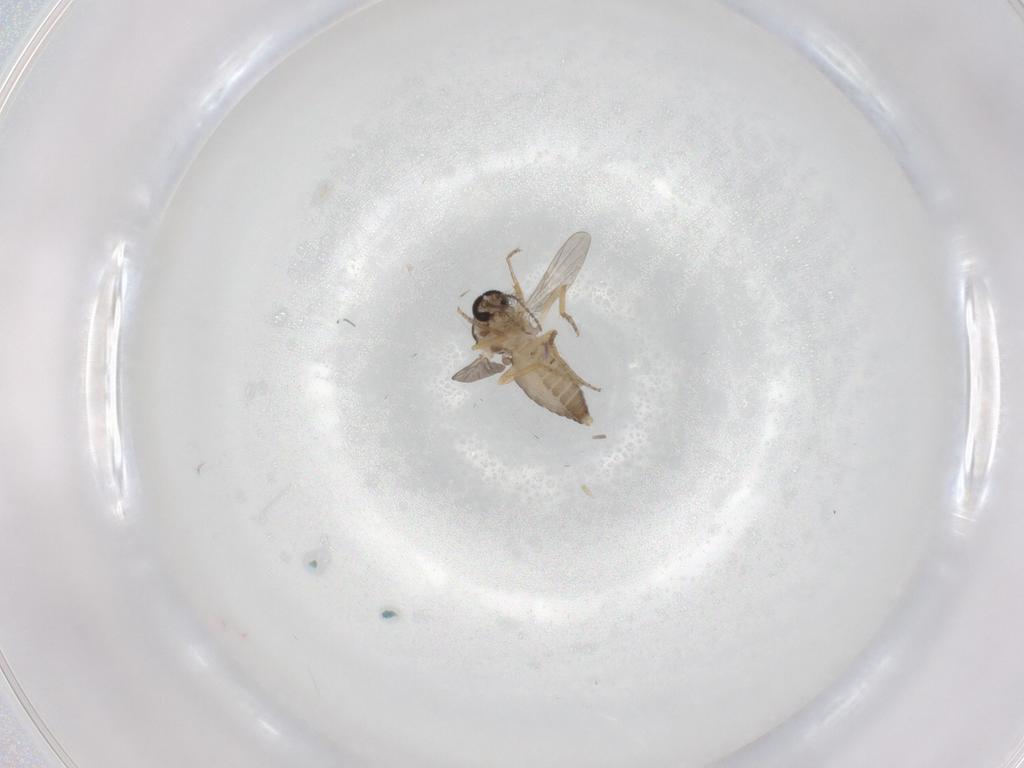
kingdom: Animalia
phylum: Arthropoda
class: Insecta
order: Diptera
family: Ceratopogonidae
